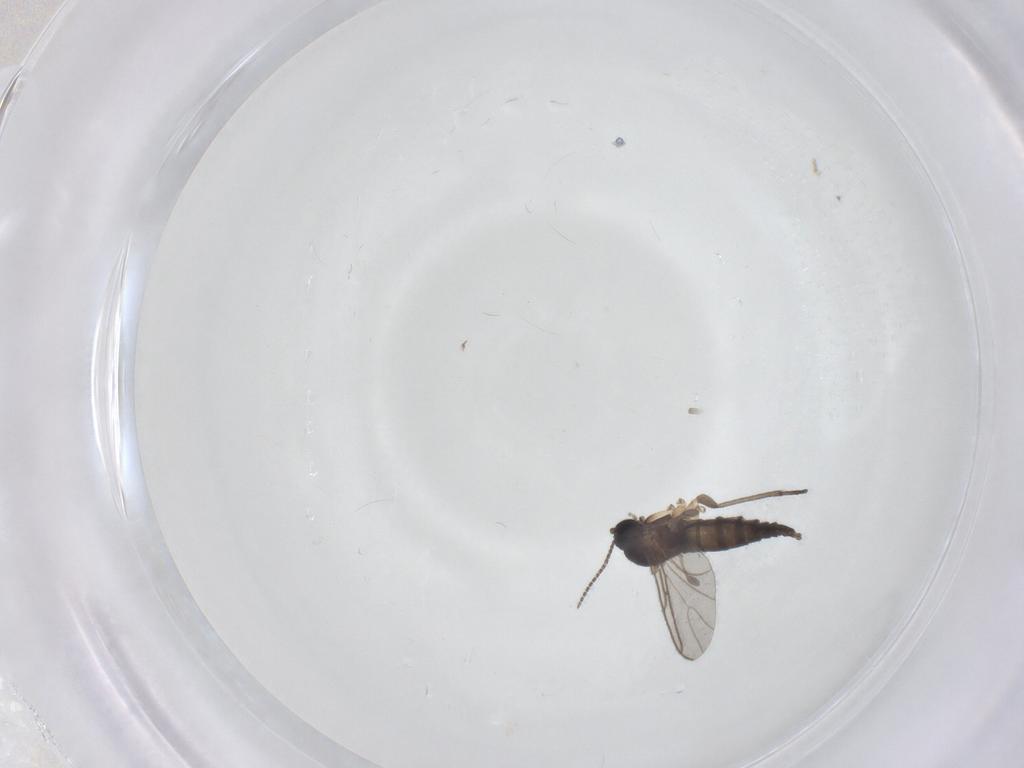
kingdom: Animalia
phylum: Arthropoda
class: Insecta
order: Diptera
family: Sciaridae
